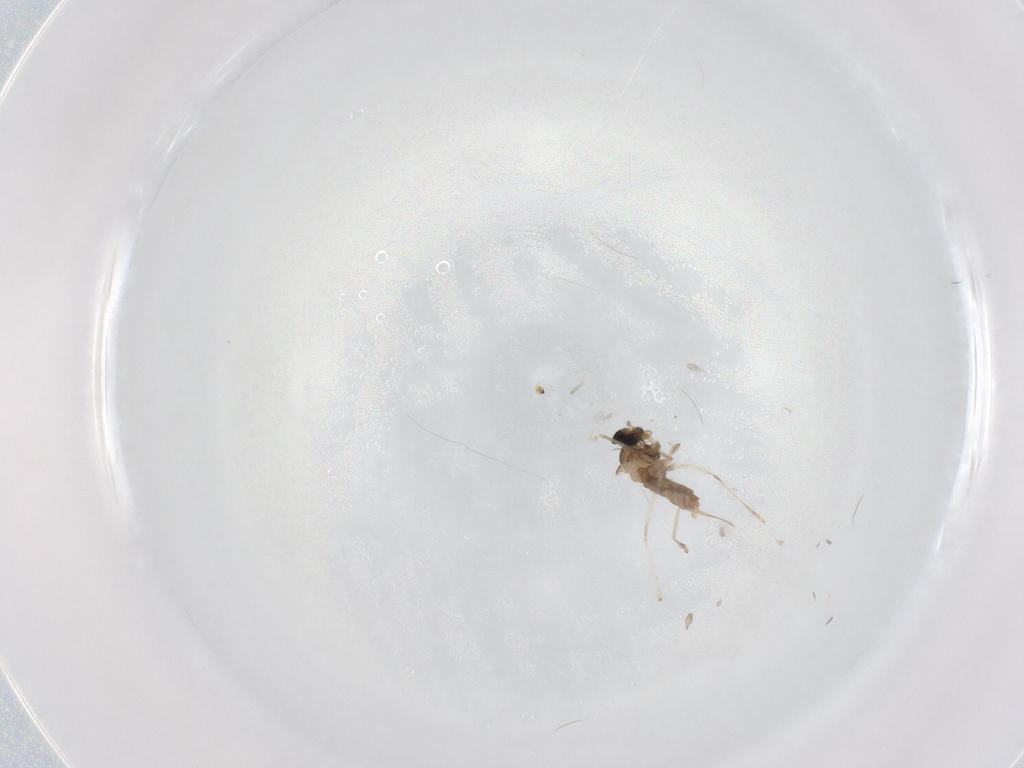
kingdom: Animalia
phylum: Arthropoda
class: Insecta
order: Diptera
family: Cecidomyiidae
